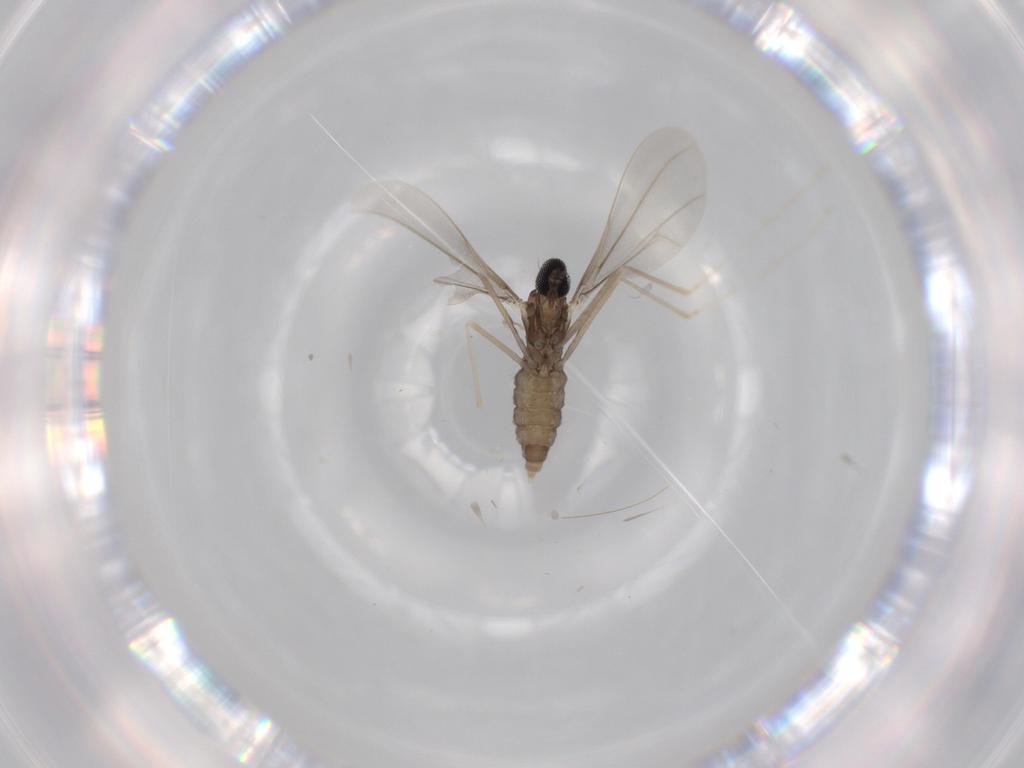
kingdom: Animalia
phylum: Arthropoda
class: Insecta
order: Diptera
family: Cecidomyiidae
